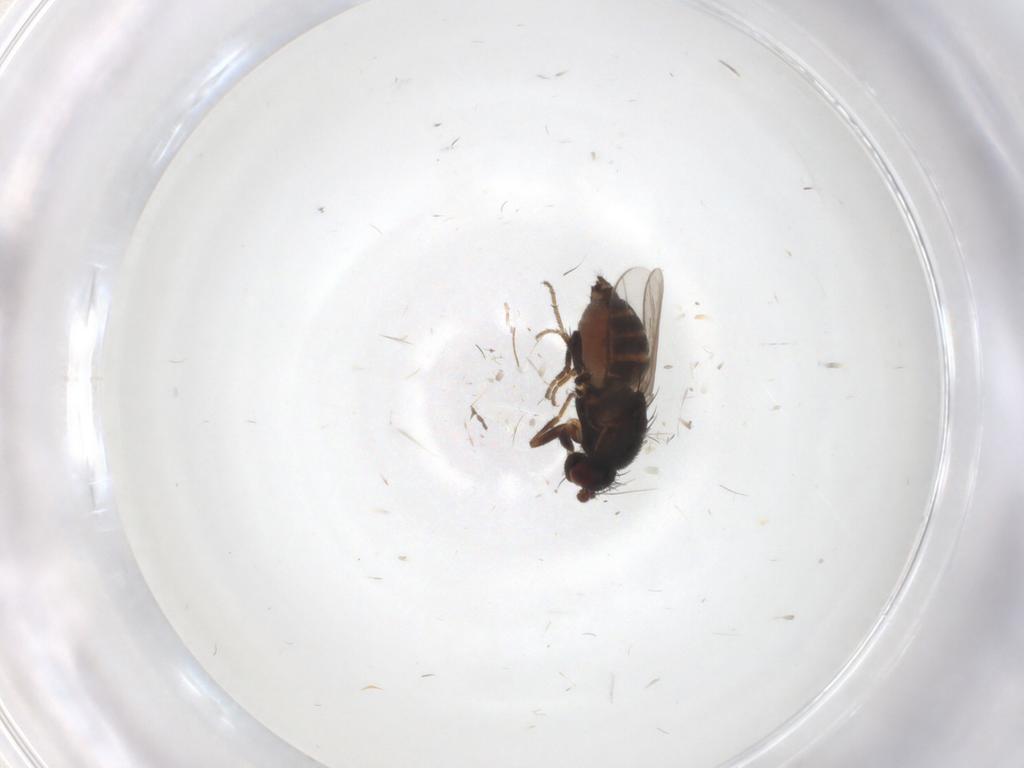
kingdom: Animalia
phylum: Arthropoda
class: Insecta
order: Diptera
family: Sphaeroceridae
